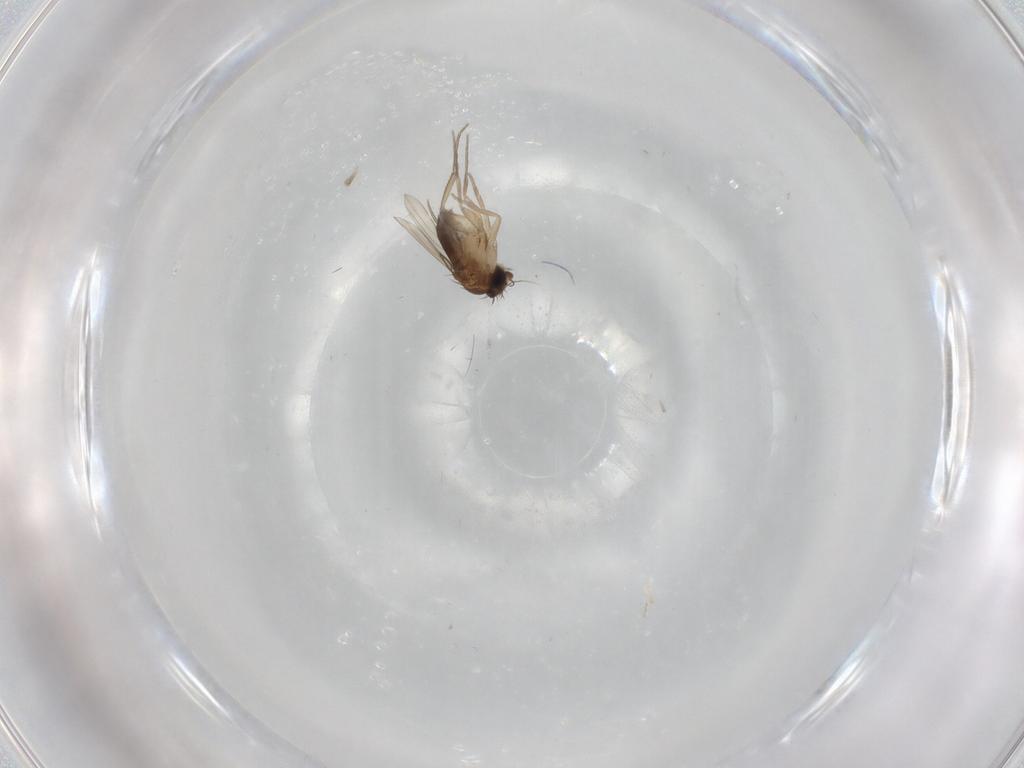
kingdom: Animalia
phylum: Arthropoda
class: Insecta
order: Diptera
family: Phoridae
